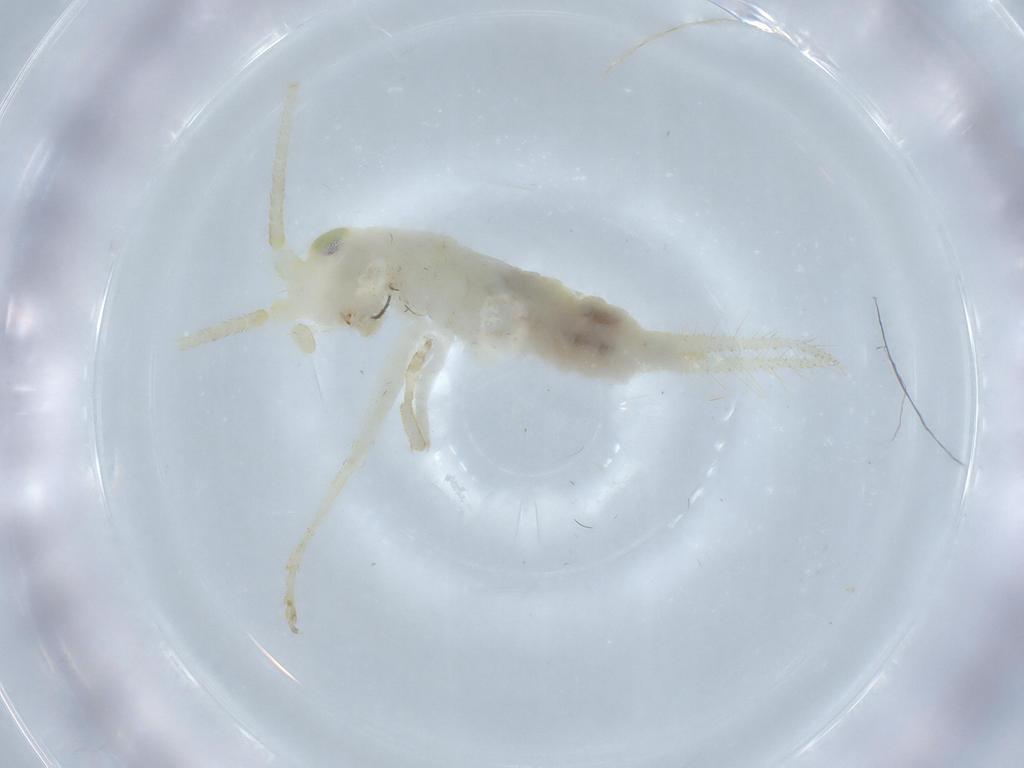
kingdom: Animalia
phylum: Arthropoda
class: Insecta
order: Orthoptera
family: Trigonidiidae
